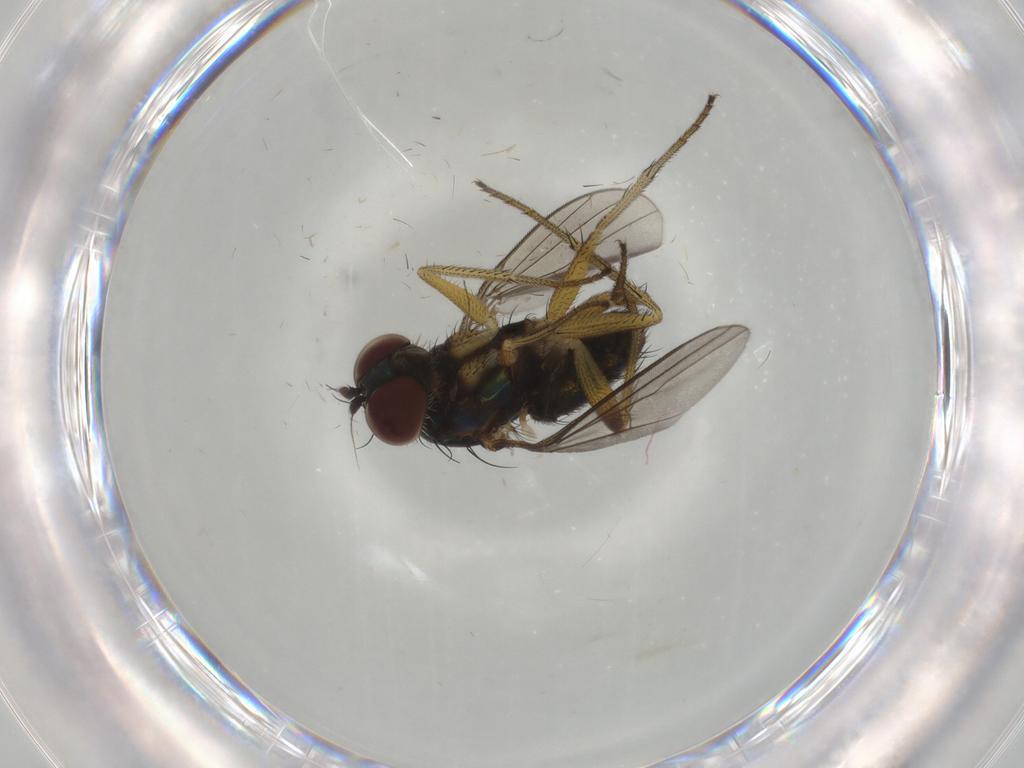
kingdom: Animalia
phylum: Arthropoda
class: Insecta
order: Diptera
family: Dolichopodidae
